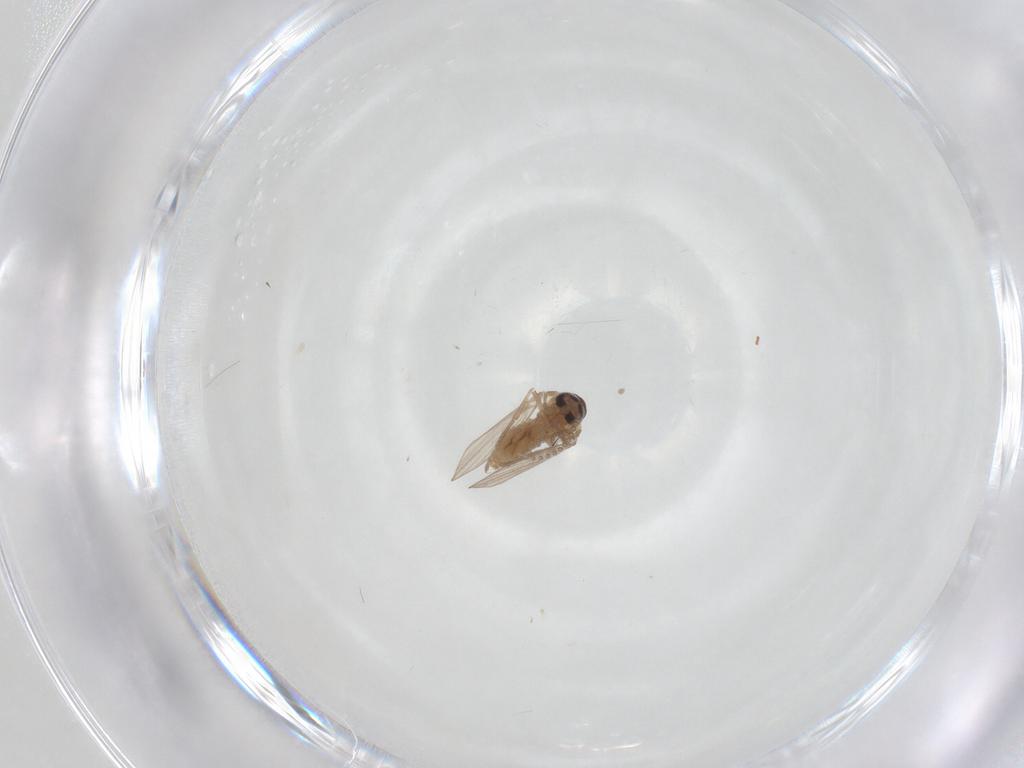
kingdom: Animalia
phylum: Arthropoda
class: Insecta
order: Diptera
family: Psychodidae
